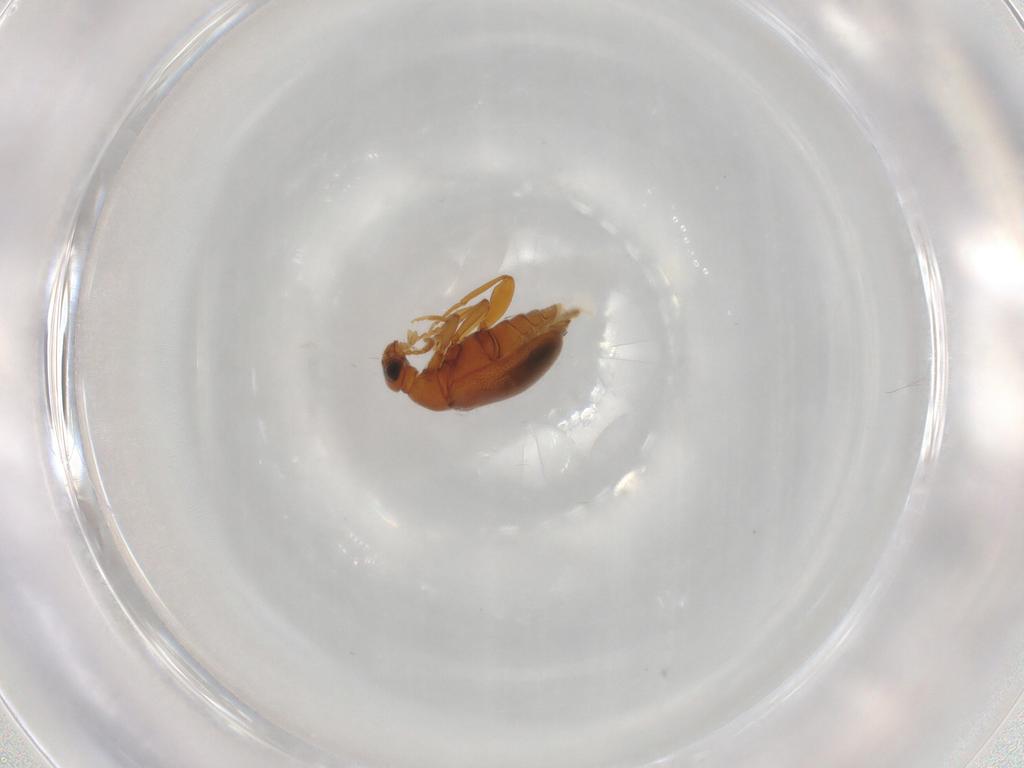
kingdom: Animalia
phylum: Arthropoda
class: Insecta
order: Coleoptera
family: Aderidae
